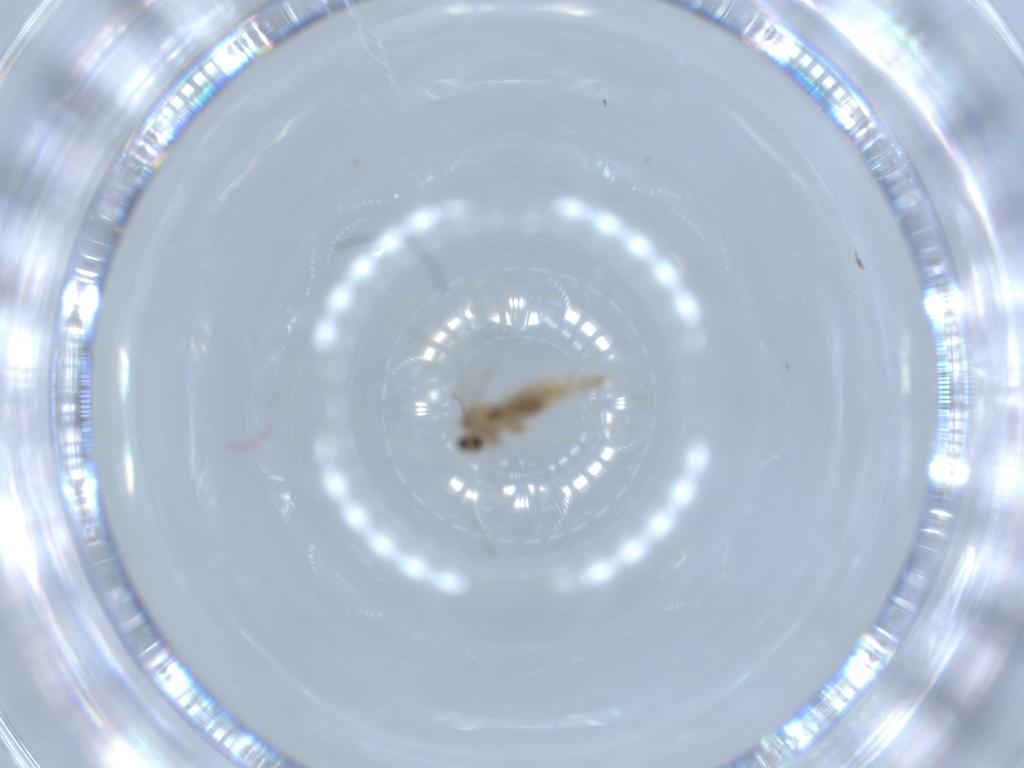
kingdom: Animalia
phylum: Arthropoda
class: Insecta
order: Diptera
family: Cecidomyiidae
